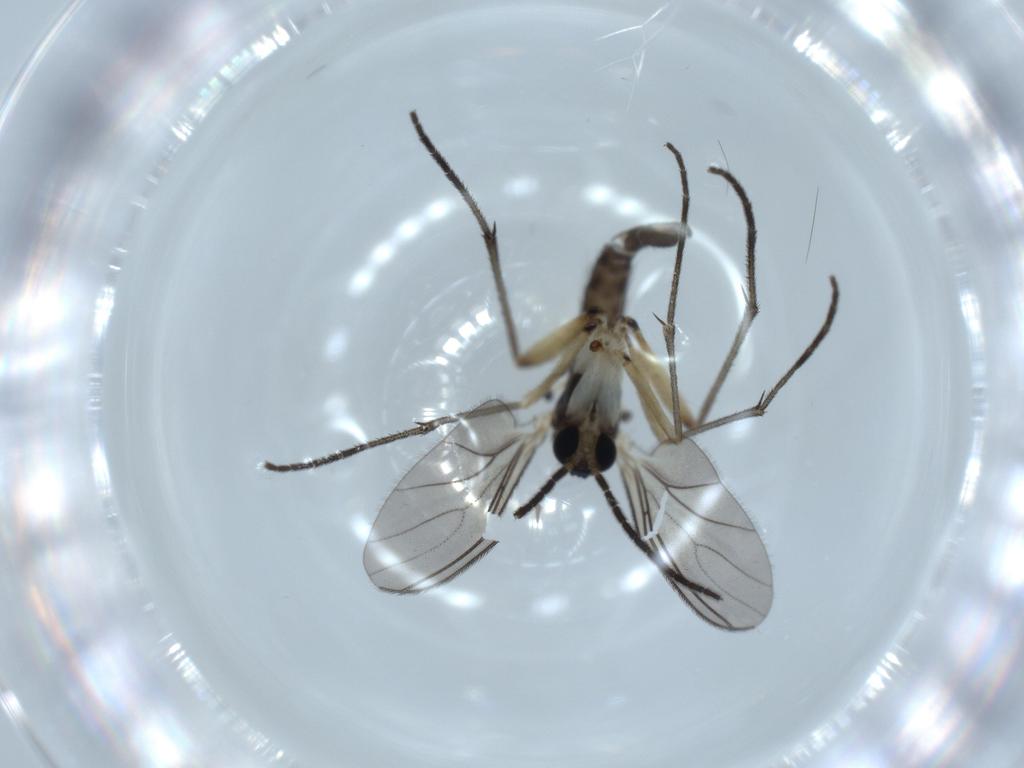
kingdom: Animalia
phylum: Arthropoda
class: Insecta
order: Diptera
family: Sciaridae
